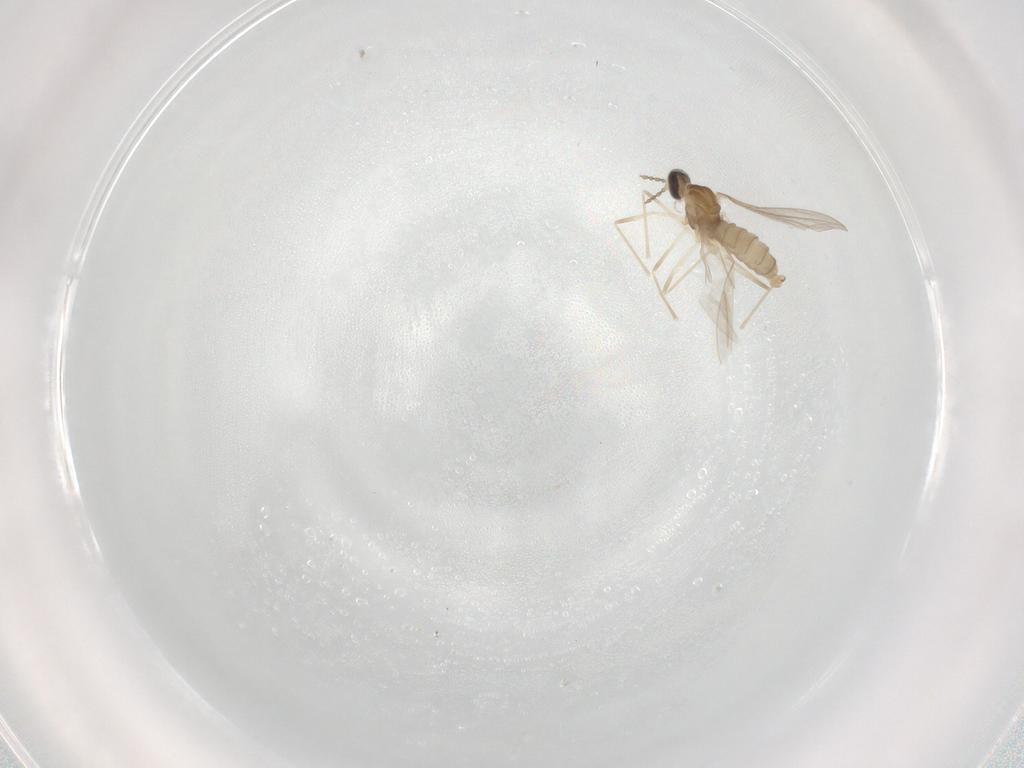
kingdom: Animalia
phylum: Arthropoda
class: Insecta
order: Diptera
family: Cecidomyiidae
